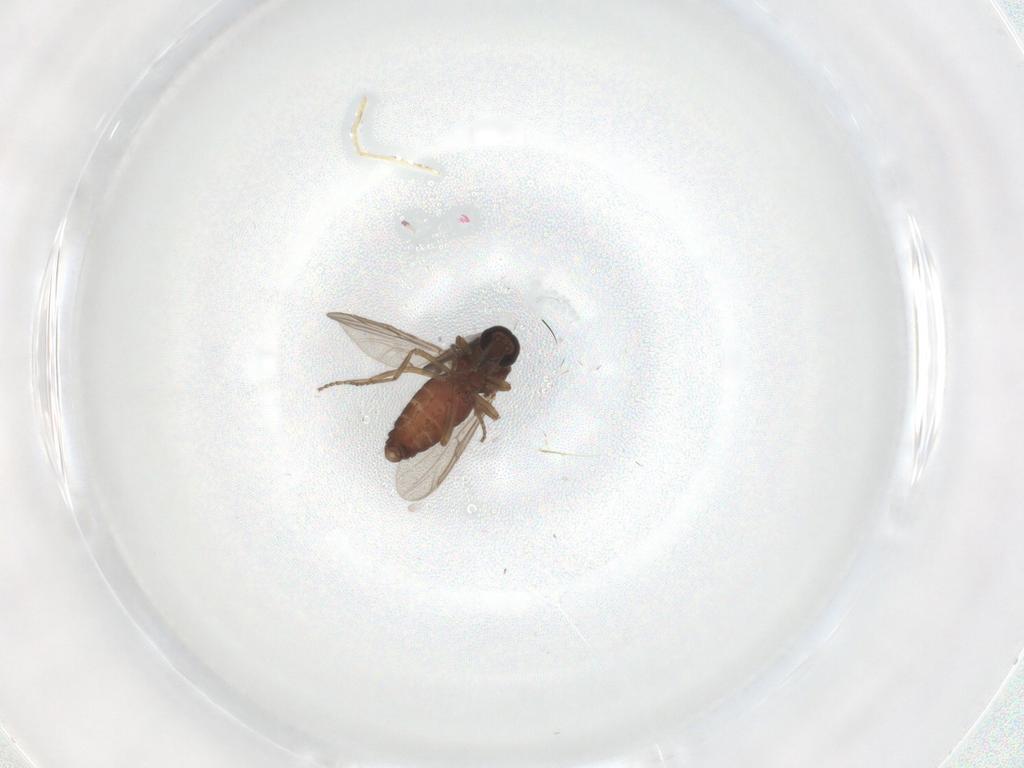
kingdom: Animalia
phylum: Arthropoda
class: Insecta
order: Diptera
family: Ceratopogonidae
